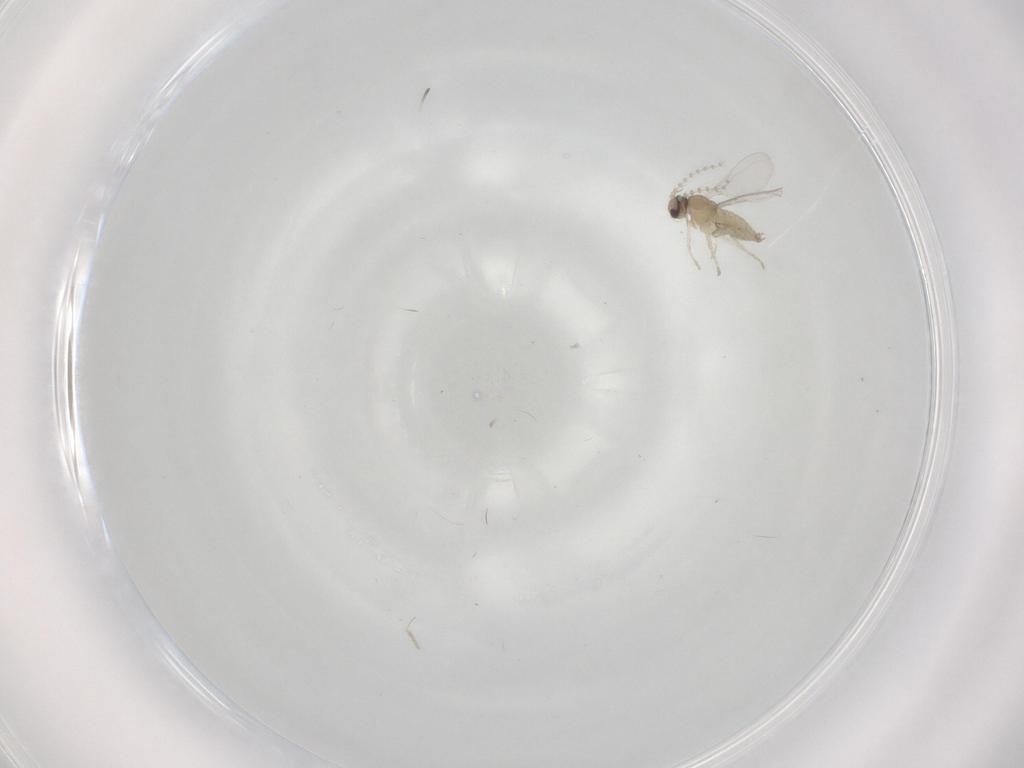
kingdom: Animalia
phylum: Arthropoda
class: Insecta
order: Diptera
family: Cecidomyiidae
